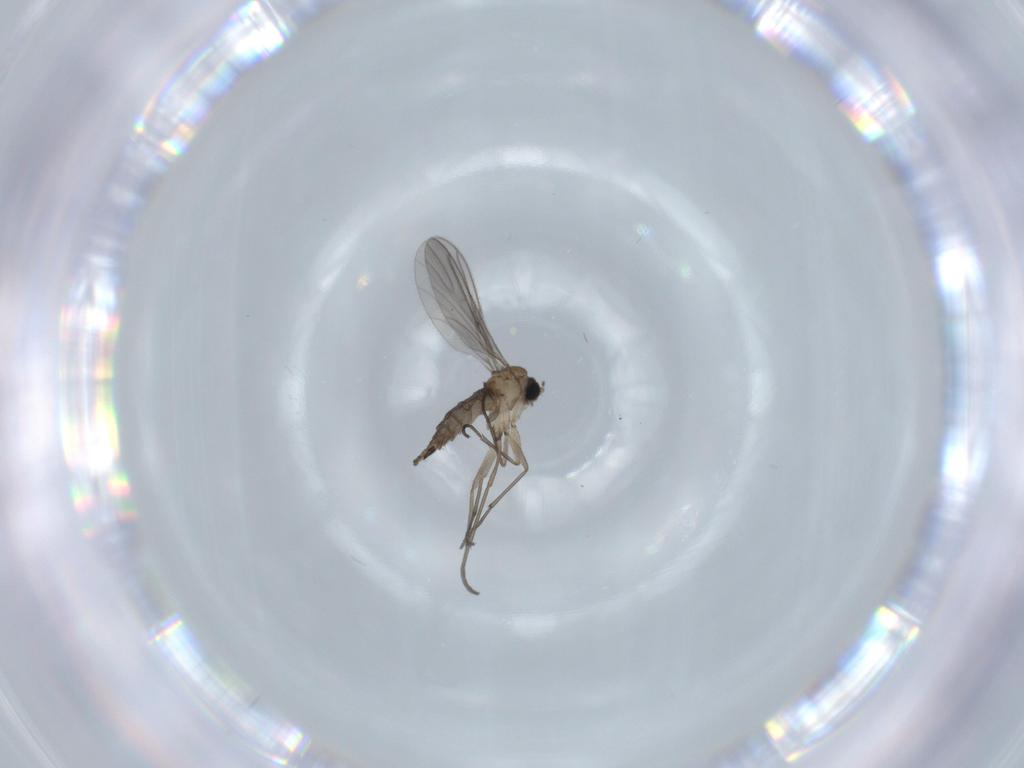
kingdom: Animalia
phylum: Arthropoda
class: Insecta
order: Diptera
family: Sciaridae
